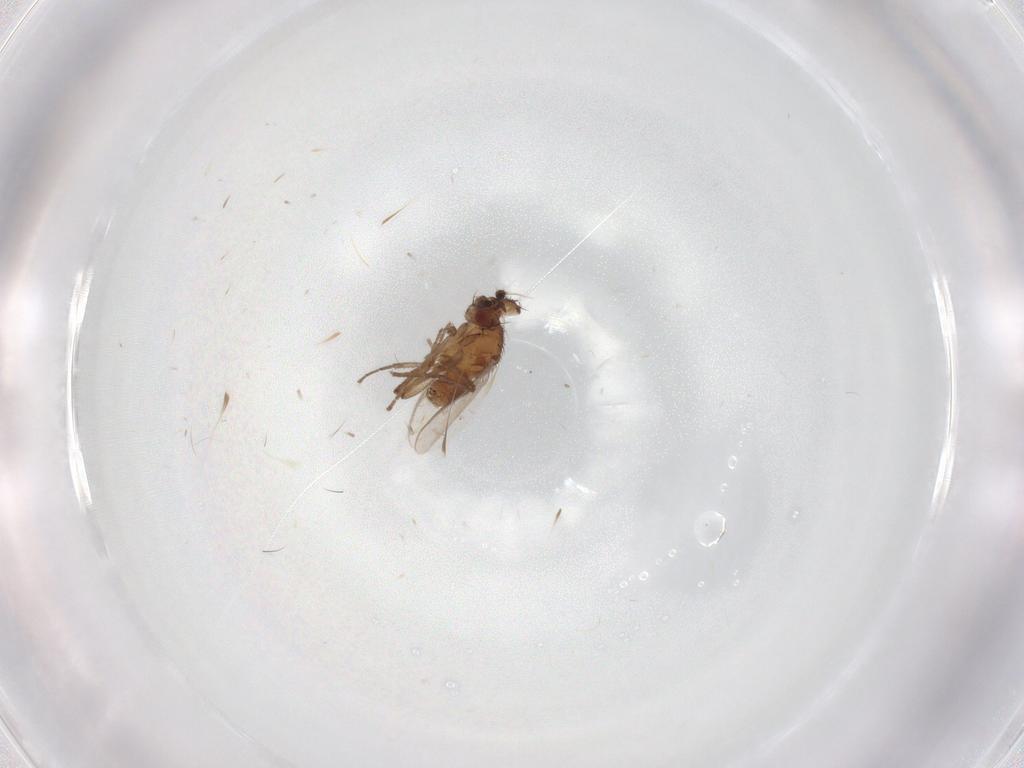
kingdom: Animalia
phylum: Arthropoda
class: Insecta
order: Diptera
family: Sphaeroceridae
